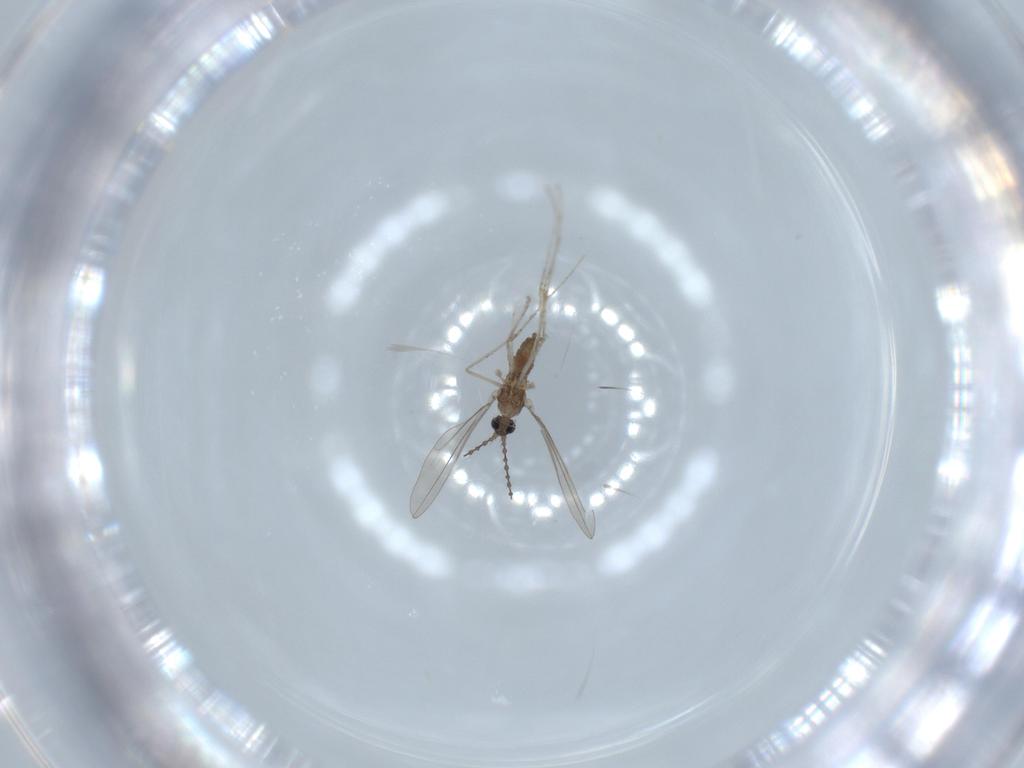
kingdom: Animalia
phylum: Arthropoda
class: Insecta
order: Diptera
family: Cecidomyiidae
